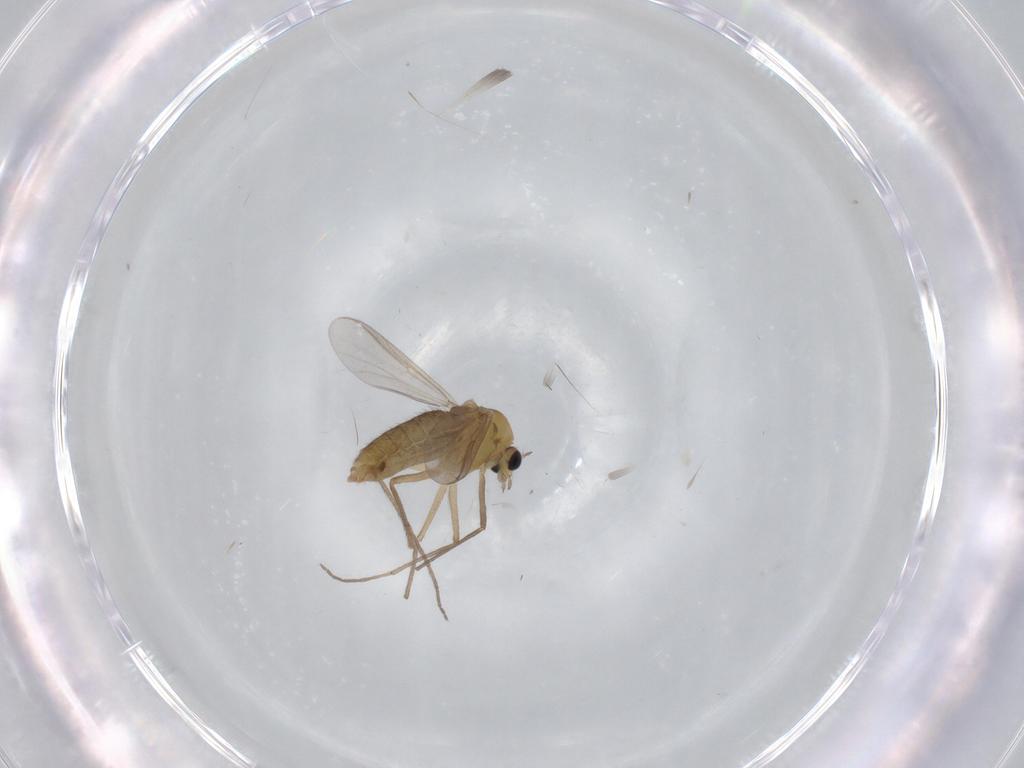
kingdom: Animalia
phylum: Arthropoda
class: Insecta
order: Diptera
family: Chironomidae
